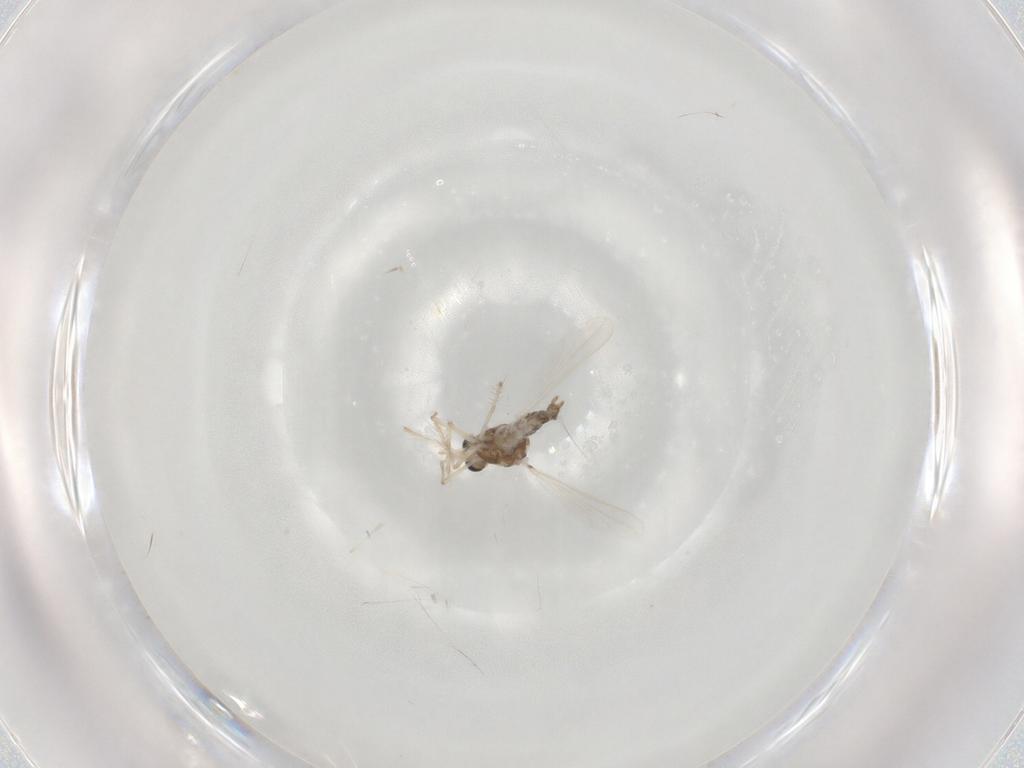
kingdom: Animalia
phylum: Arthropoda
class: Insecta
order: Diptera
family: Chironomidae
